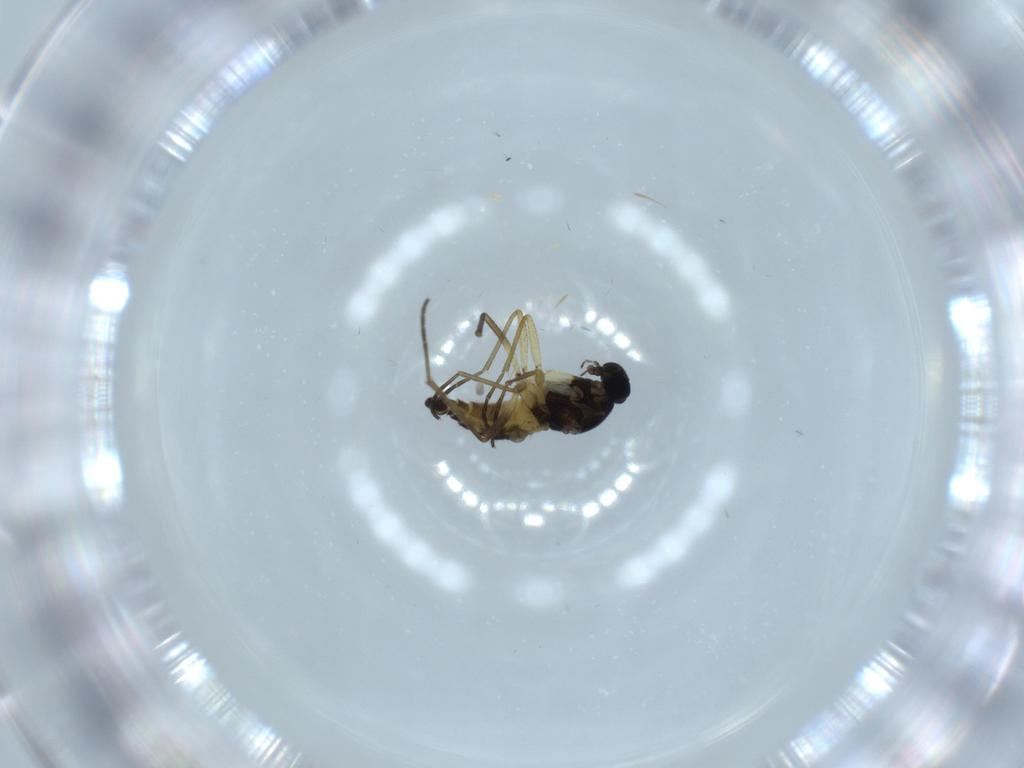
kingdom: Animalia
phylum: Arthropoda
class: Insecta
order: Diptera
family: Sciaridae
